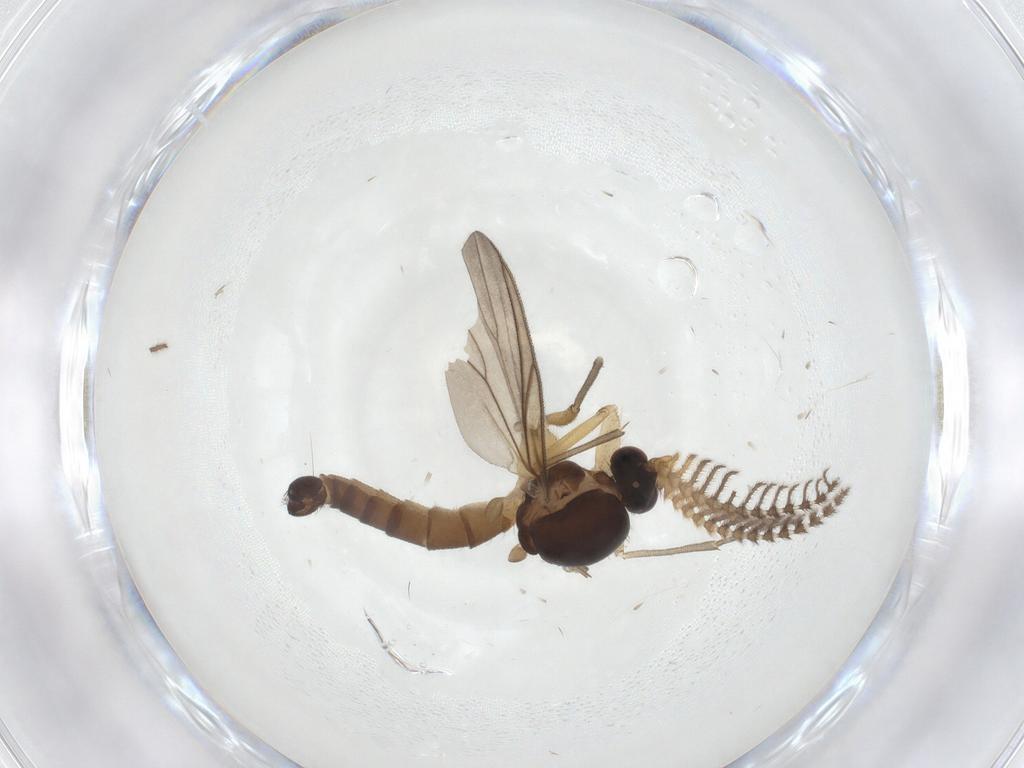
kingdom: Animalia
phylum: Arthropoda
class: Insecta
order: Diptera
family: Mycetophilidae
